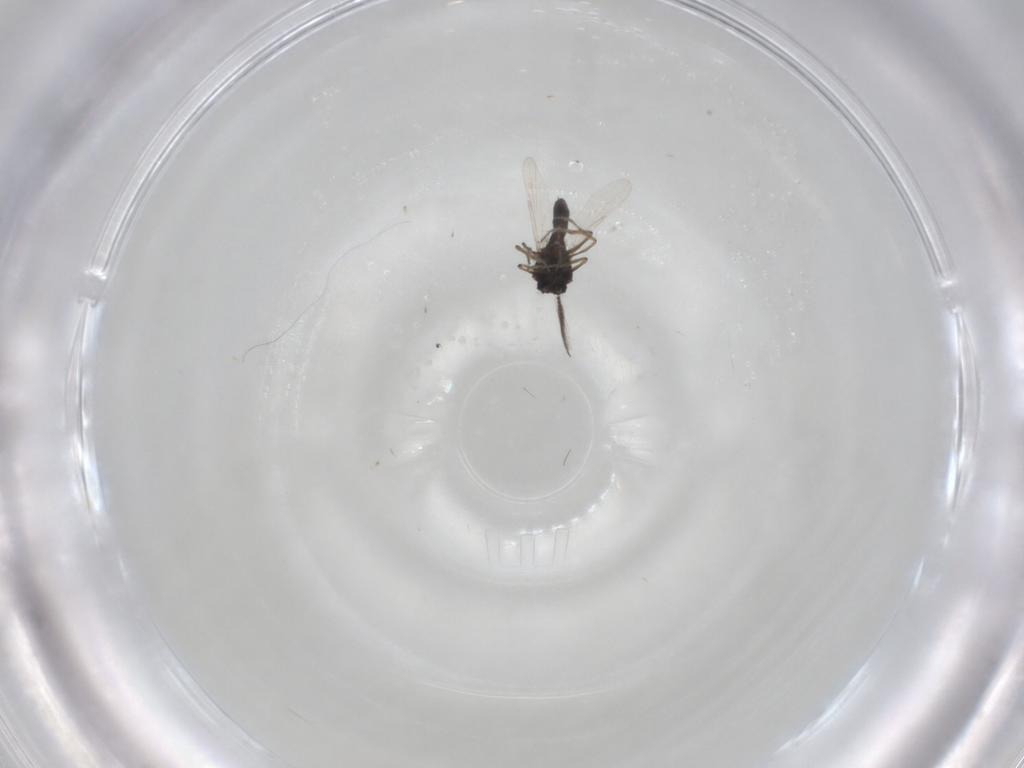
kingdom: Animalia
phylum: Arthropoda
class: Insecta
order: Diptera
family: Ceratopogonidae
